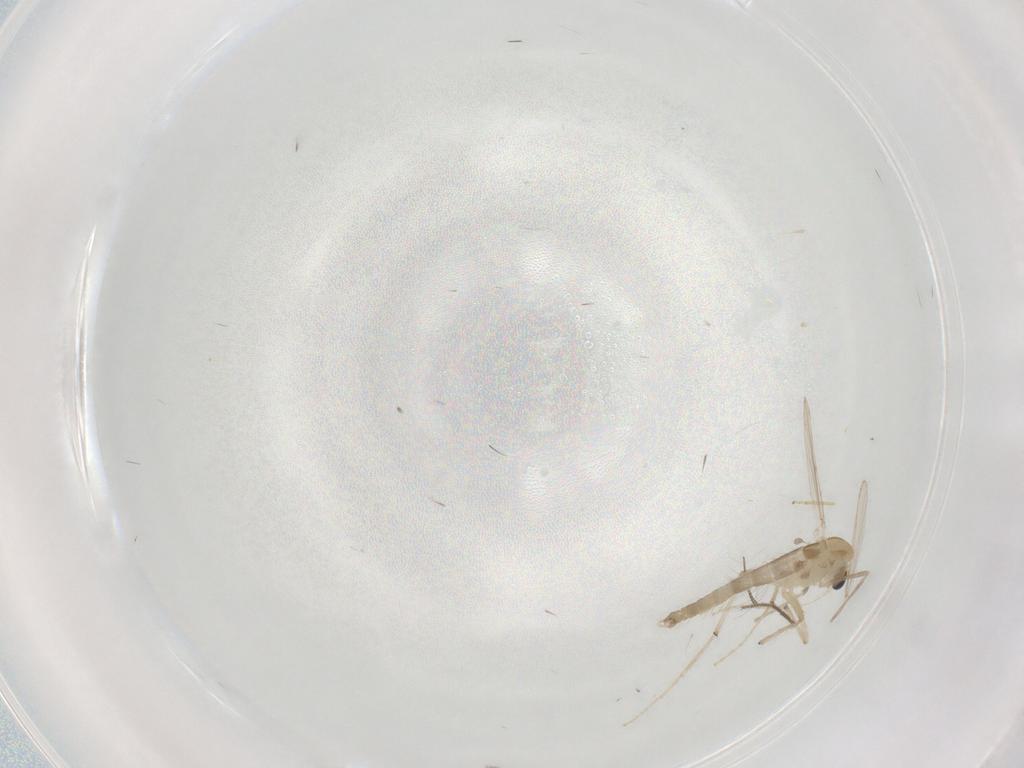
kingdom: Animalia
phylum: Arthropoda
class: Insecta
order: Diptera
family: Chironomidae
